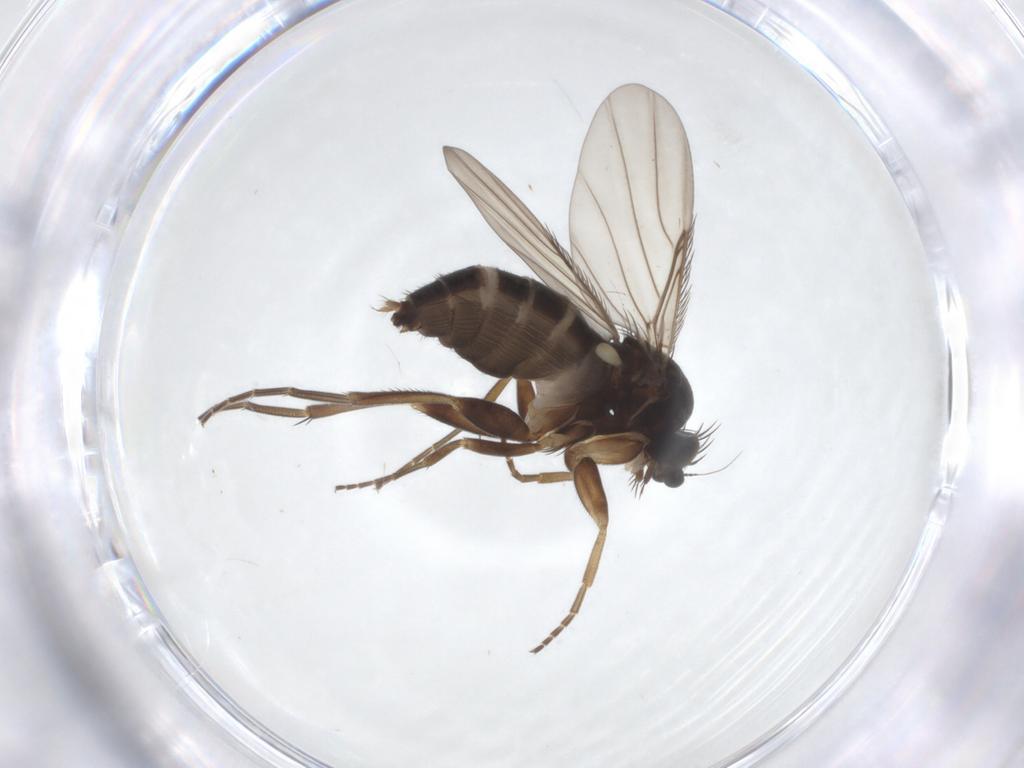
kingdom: Animalia
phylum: Arthropoda
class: Insecta
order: Diptera
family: Phoridae
